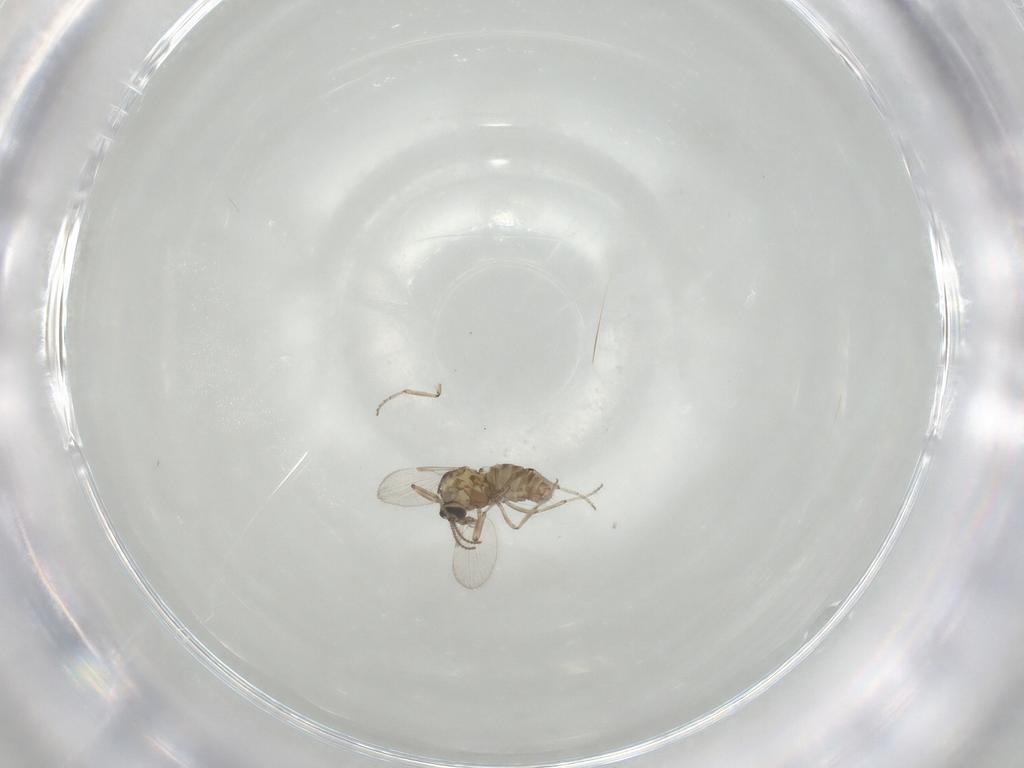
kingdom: Animalia
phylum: Arthropoda
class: Insecta
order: Diptera
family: Ceratopogonidae
